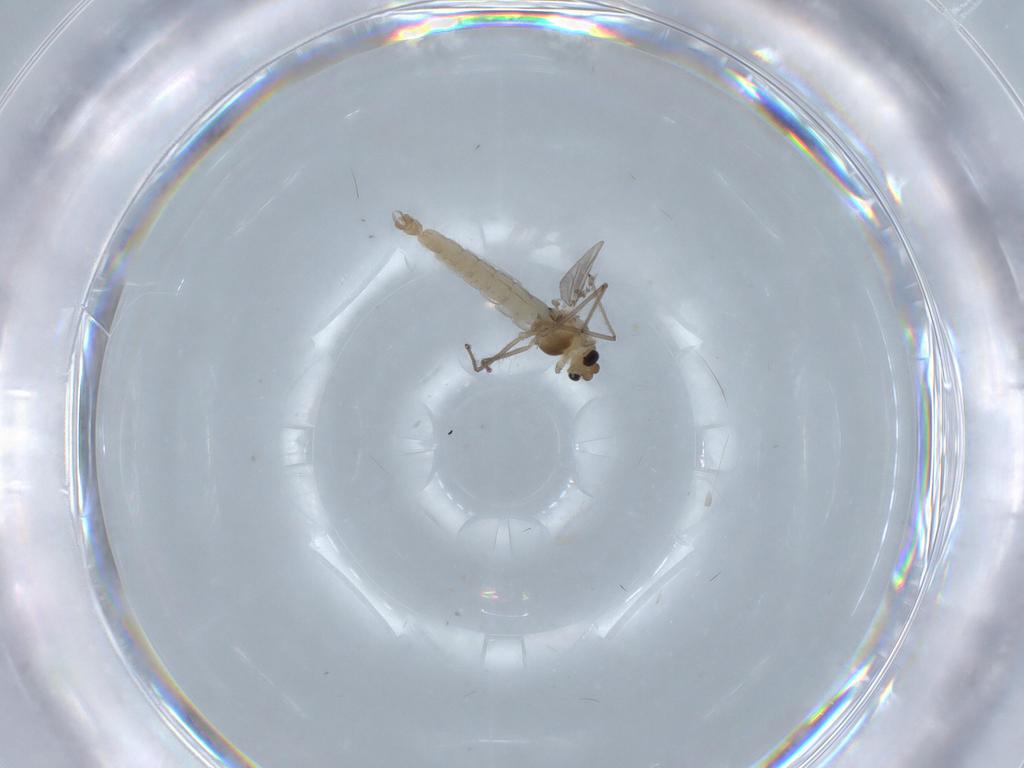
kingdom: Animalia
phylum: Arthropoda
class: Insecta
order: Diptera
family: Chironomidae
